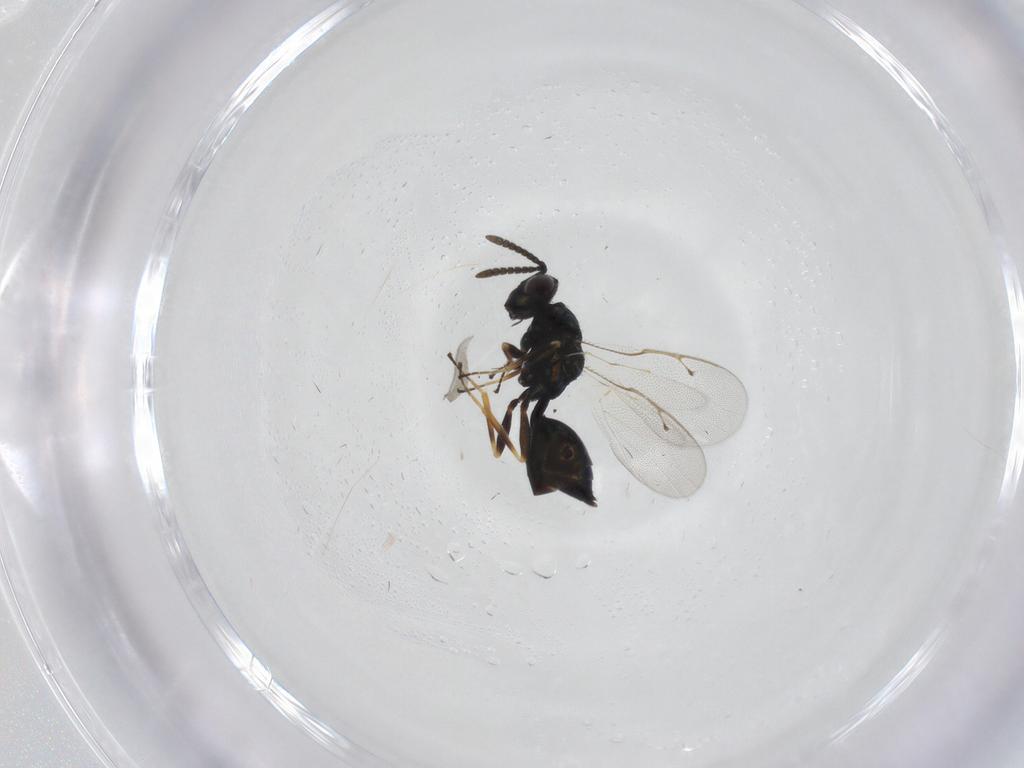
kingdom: Animalia
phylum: Arthropoda
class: Insecta
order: Hymenoptera
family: Pteromalidae
